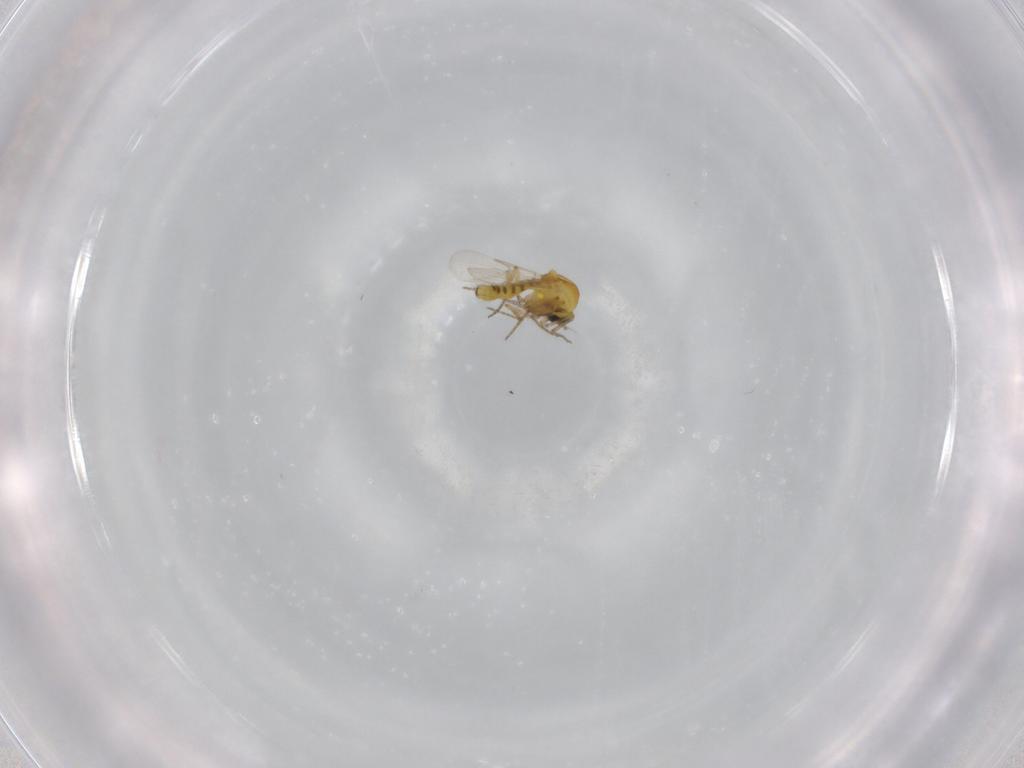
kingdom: Animalia
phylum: Arthropoda
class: Insecta
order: Diptera
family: Ceratopogonidae
